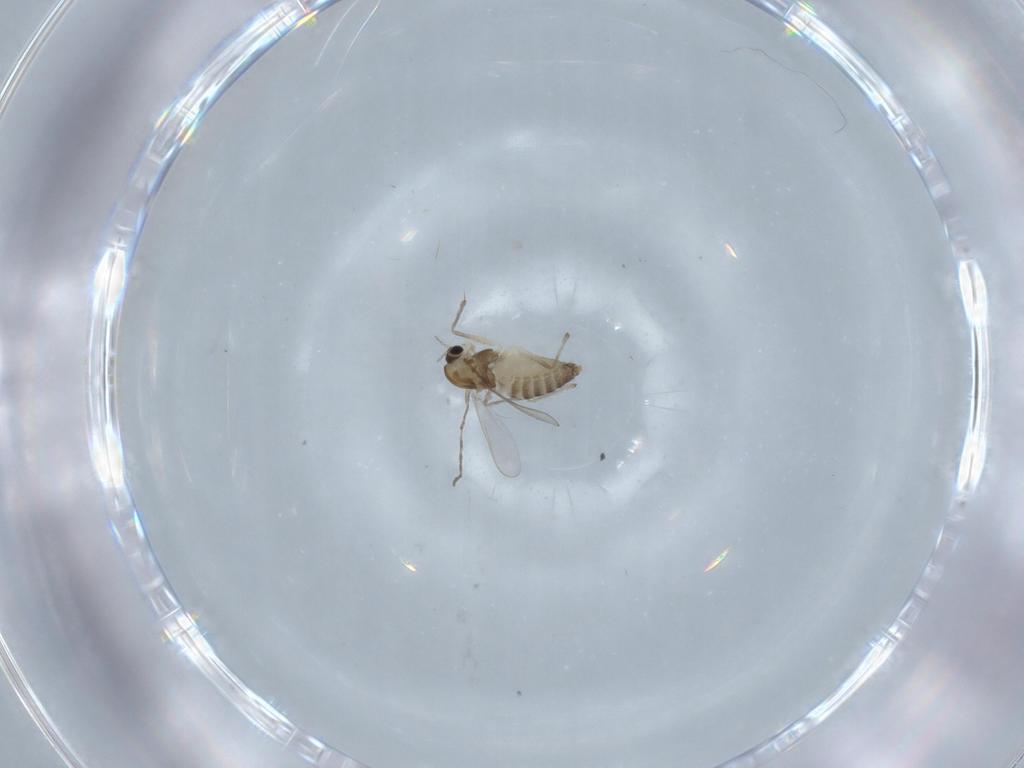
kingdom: Animalia
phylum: Arthropoda
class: Insecta
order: Diptera
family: Chironomidae
